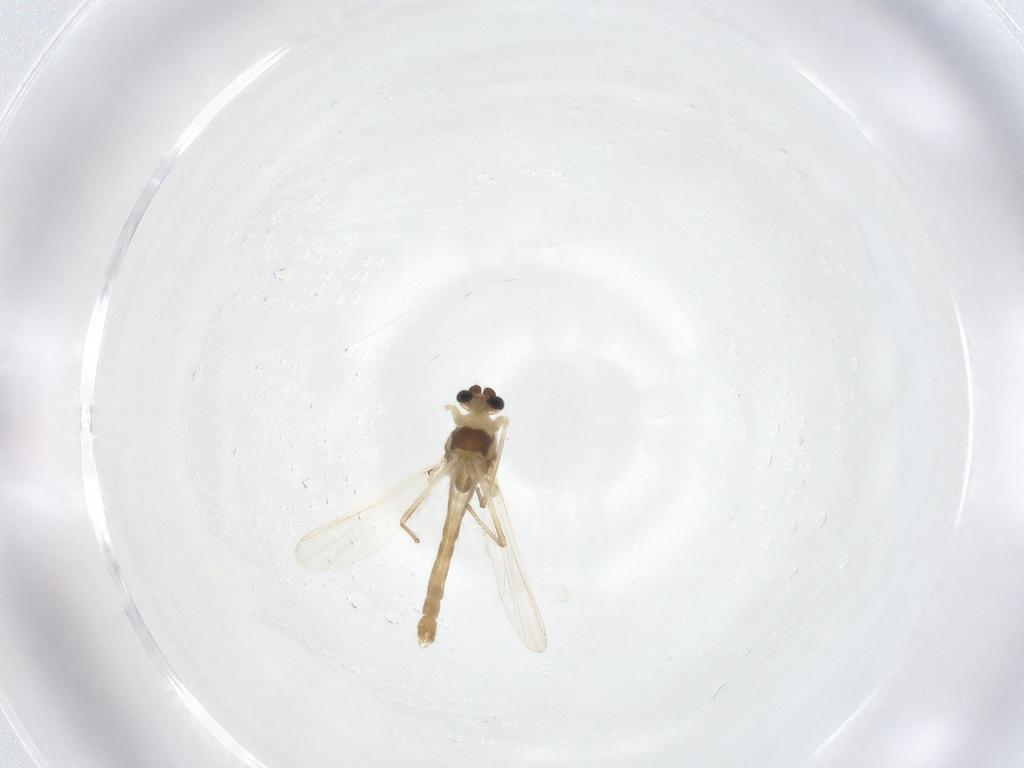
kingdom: Animalia
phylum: Arthropoda
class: Insecta
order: Diptera
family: Chironomidae
